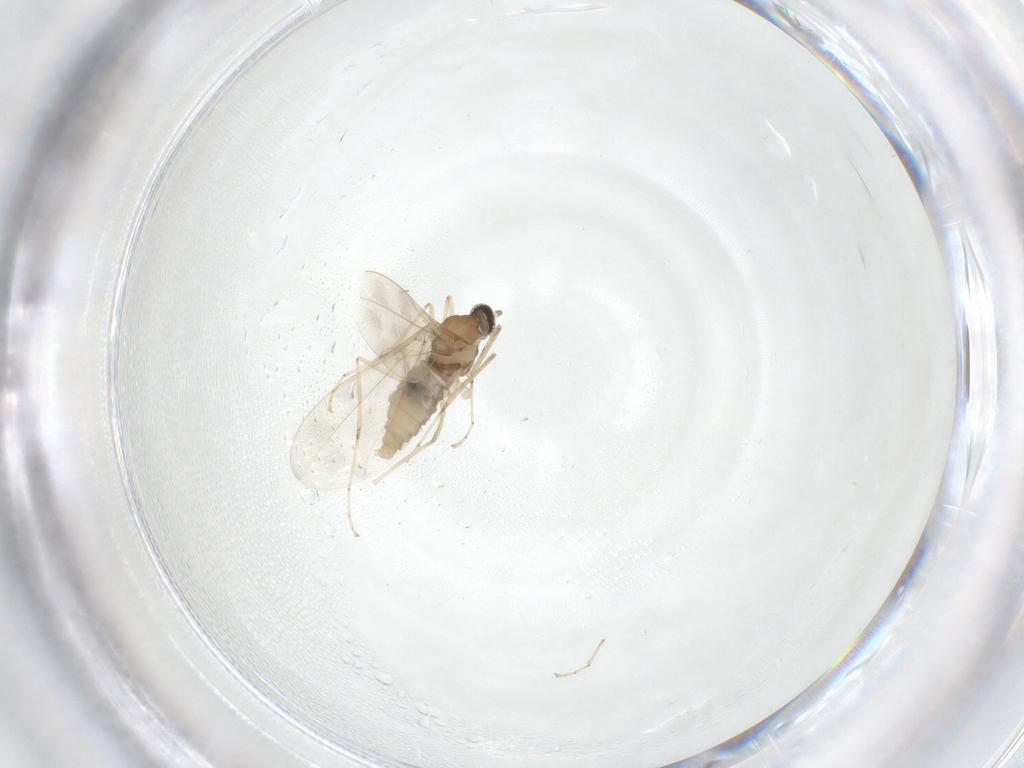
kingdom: Animalia
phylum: Arthropoda
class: Insecta
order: Diptera
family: Cecidomyiidae
